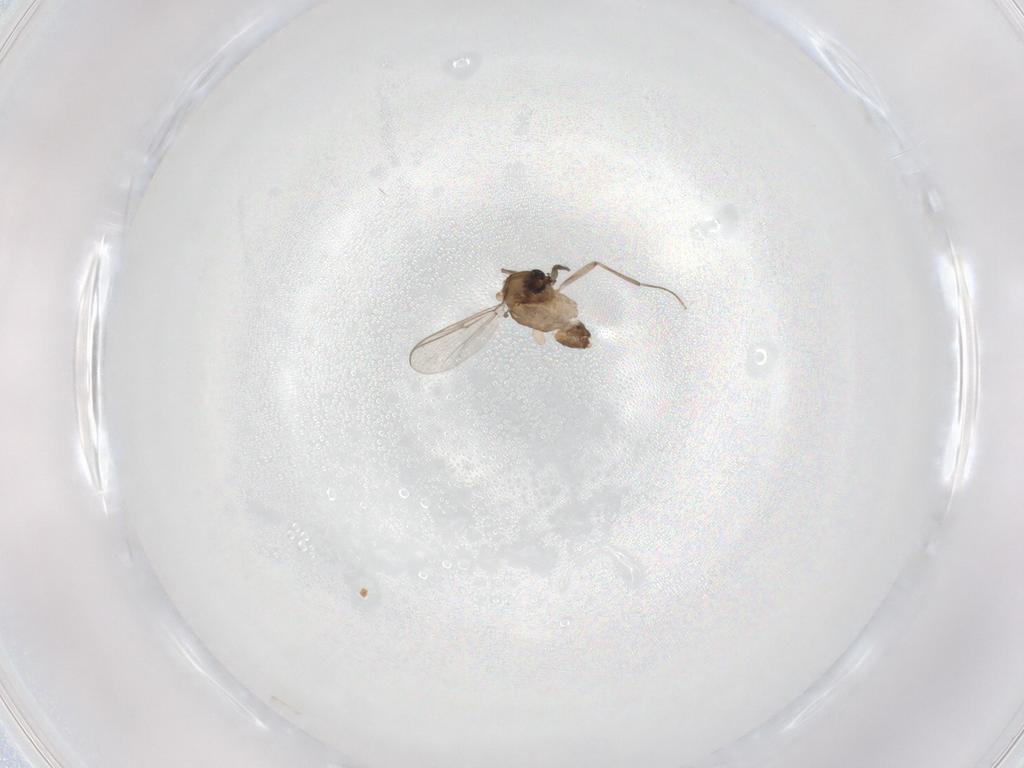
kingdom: Animalia
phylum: Arthropoda
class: Insecta
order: Diptera
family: Chironomidae
